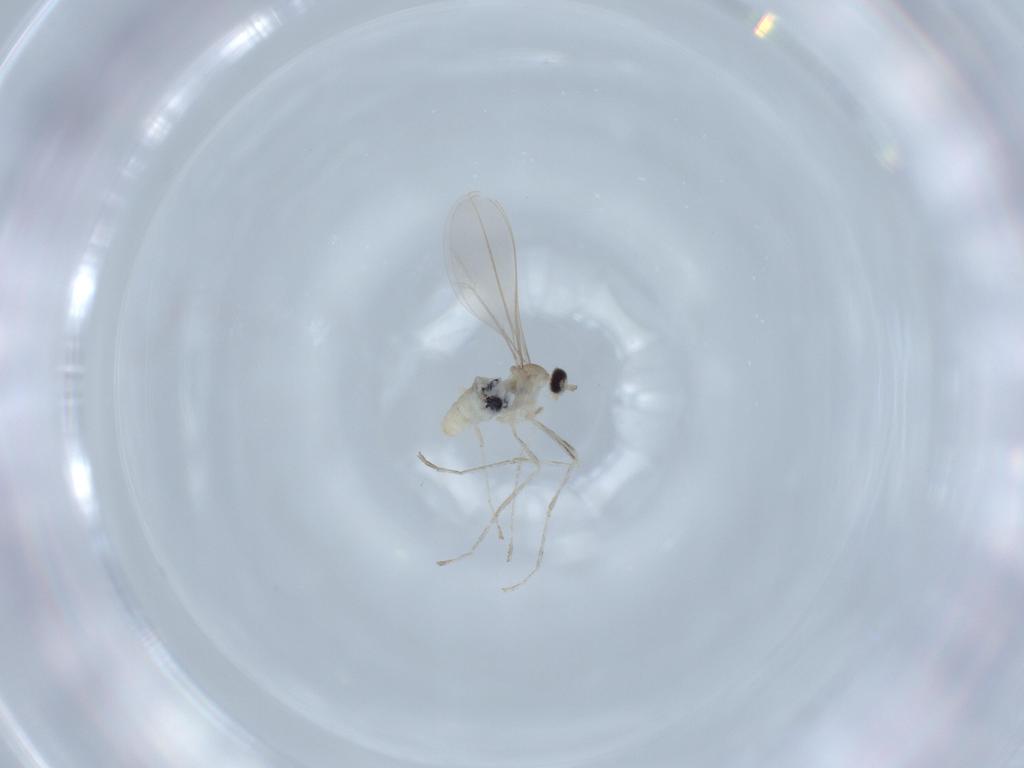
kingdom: Animalia
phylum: Arthropoda
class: Insecta
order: Diptera
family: Cecidomyiidae
